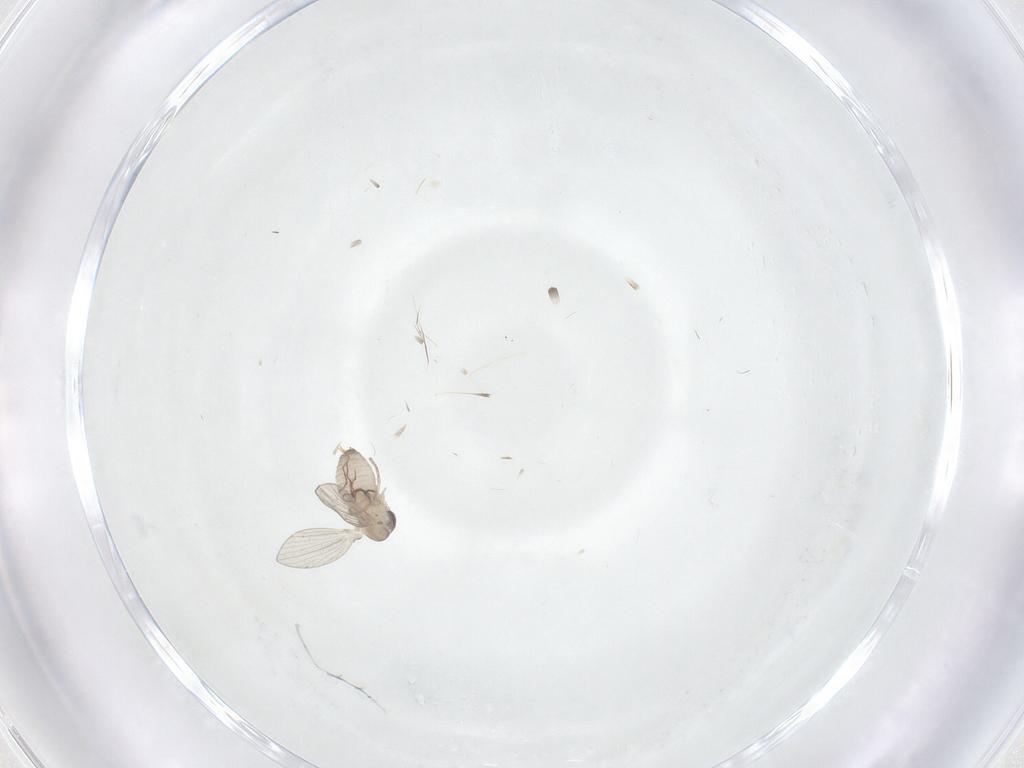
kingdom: Animalia
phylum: Arthropoda
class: Insecta
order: Diptera
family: Psychodidae
